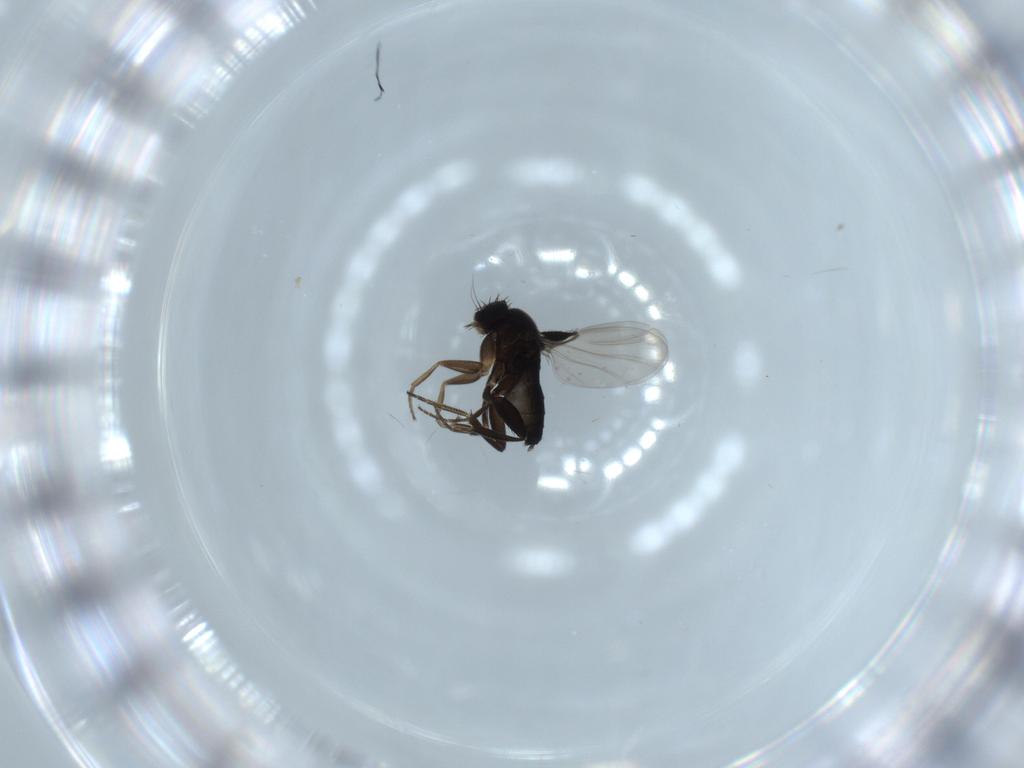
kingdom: Animalia
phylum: Arthropoda
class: Insecta
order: Diptera
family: Phoridae
